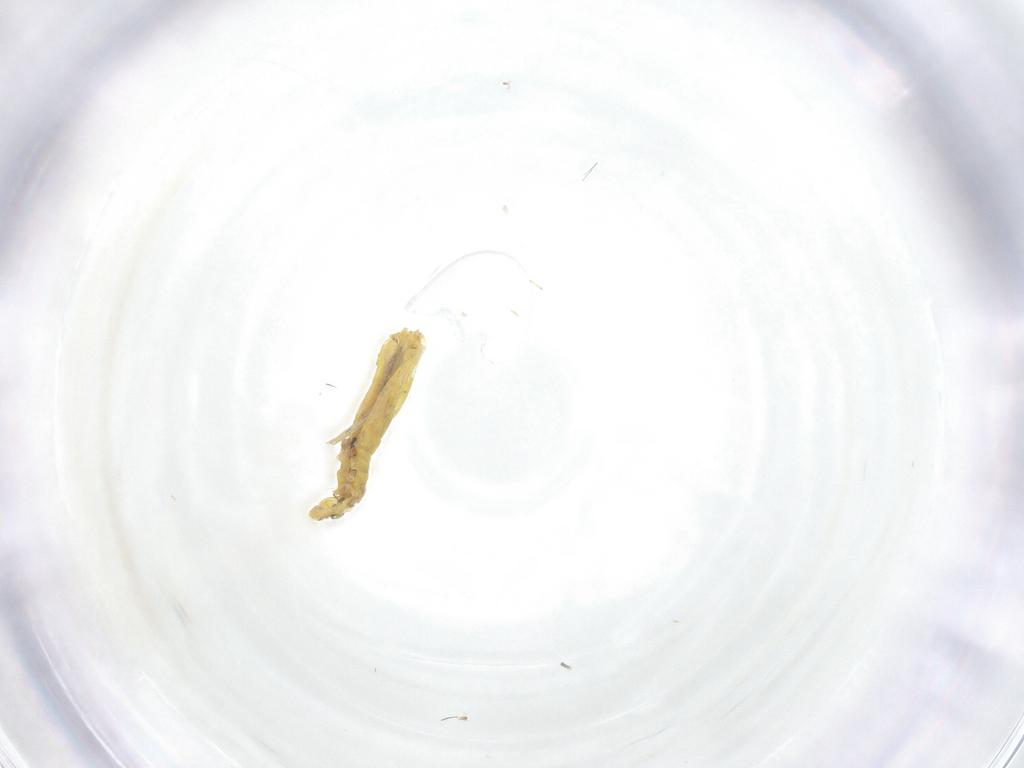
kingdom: Animalia
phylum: Arthropoda
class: Collembola
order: Entomobryomorpha
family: Paronellidae
